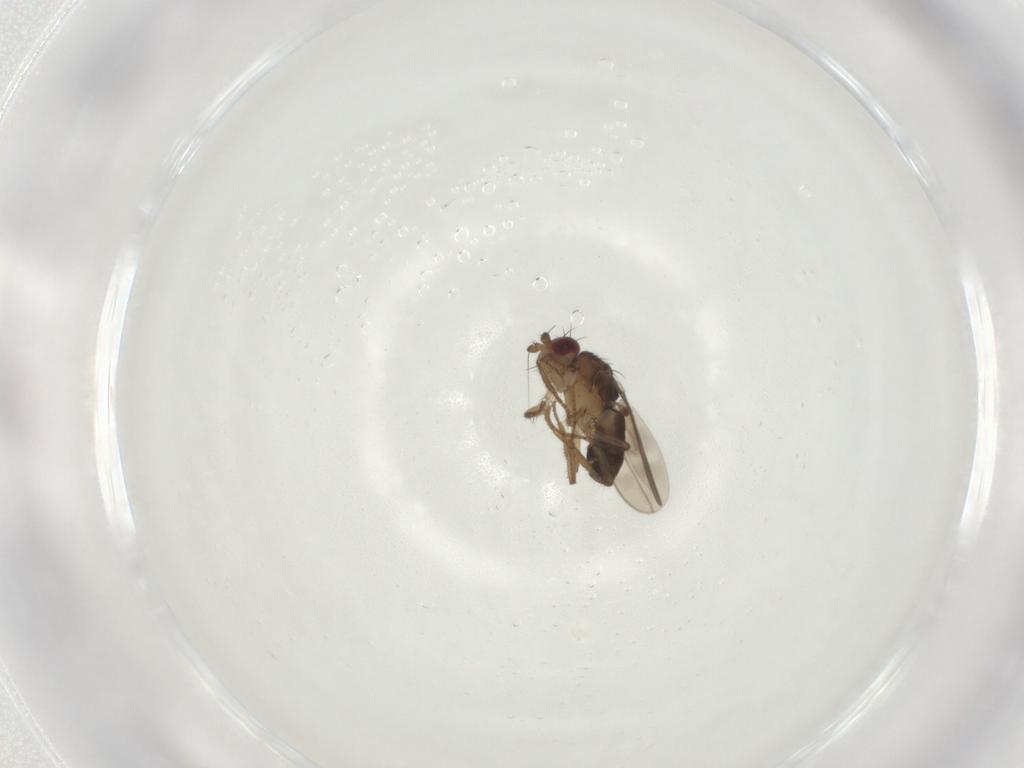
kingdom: Animalia
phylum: Arthropoda
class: Insecta
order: Diptera
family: Sphaeroceridae
